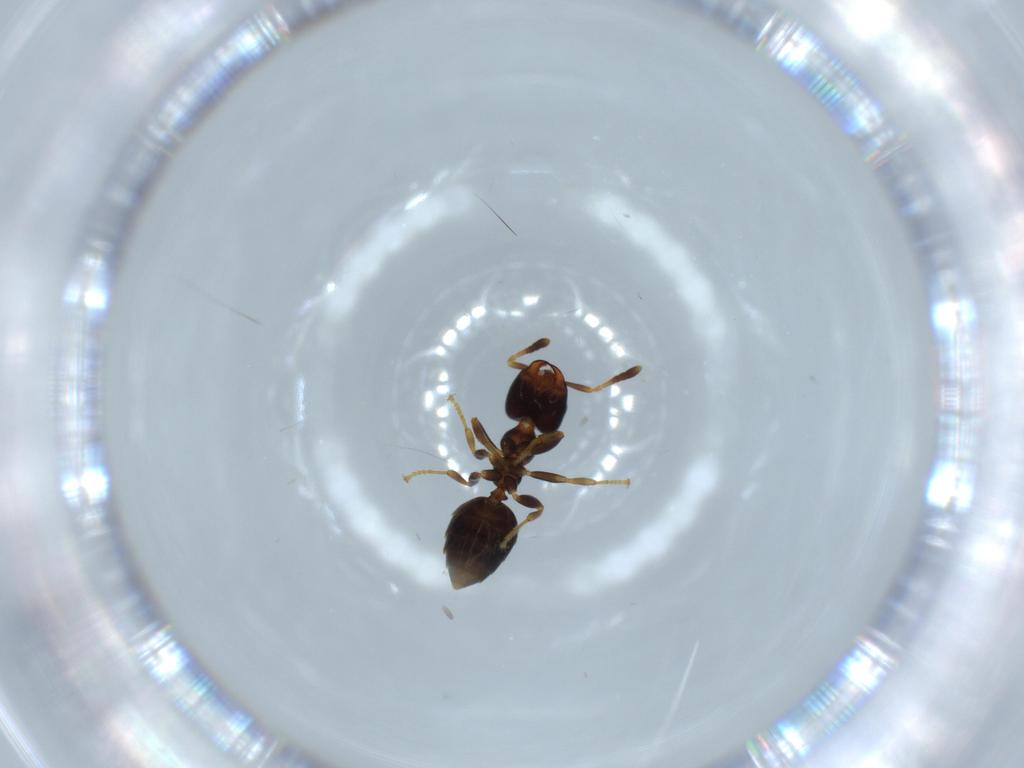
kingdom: Animalia
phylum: Arthropoda
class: Insecta
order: Hymenoptera
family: Formicidae
